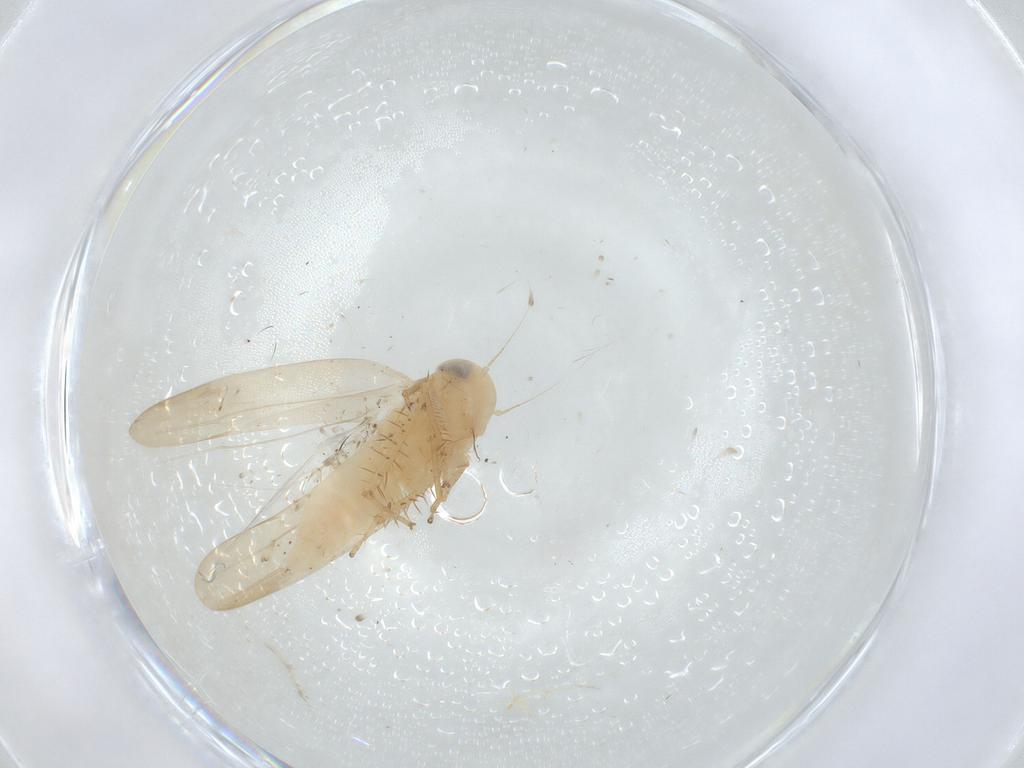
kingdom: Animalia
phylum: Arthropoda
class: Insecta
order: Hemiptera
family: Cicadellidae
